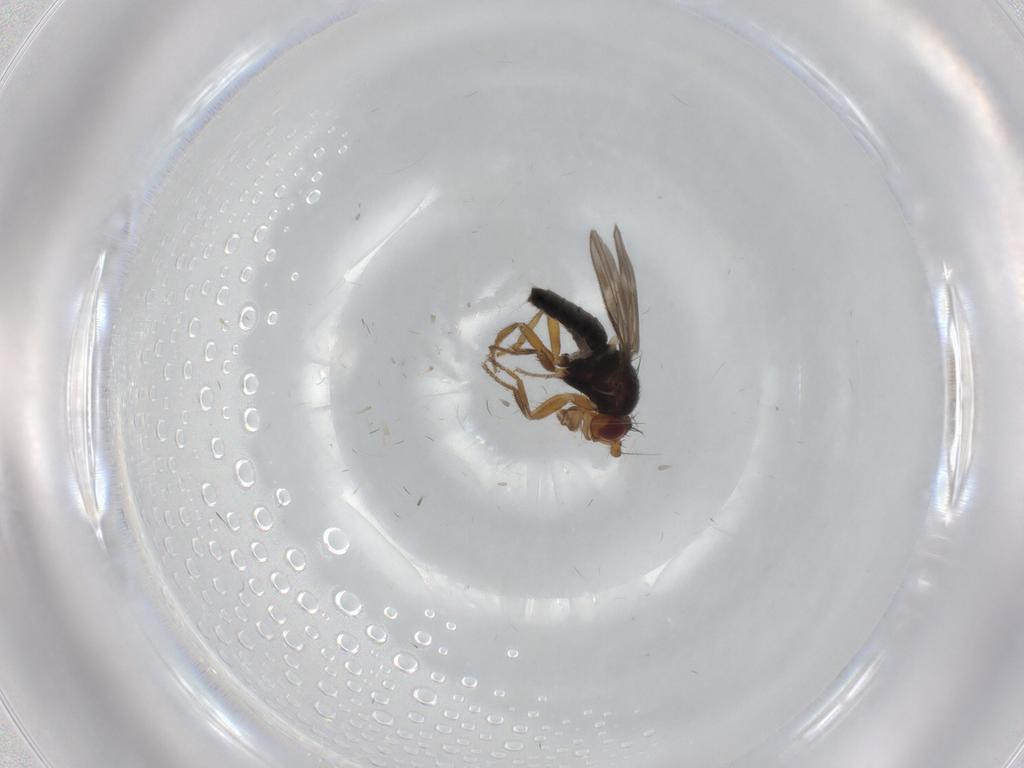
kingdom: Animalia
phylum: Arthropoda
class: Insecta
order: Diptera
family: Sphaeroceridae
